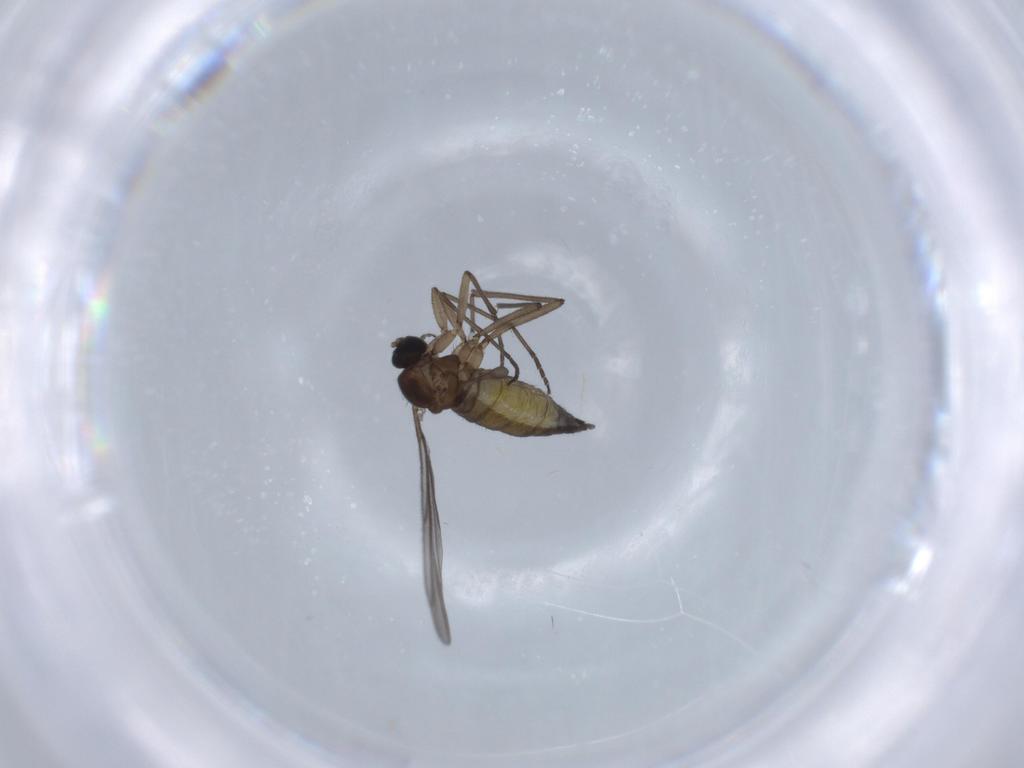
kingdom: Animalia
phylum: Arthropoda
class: Insecta
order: Diptera
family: Sciaridae
